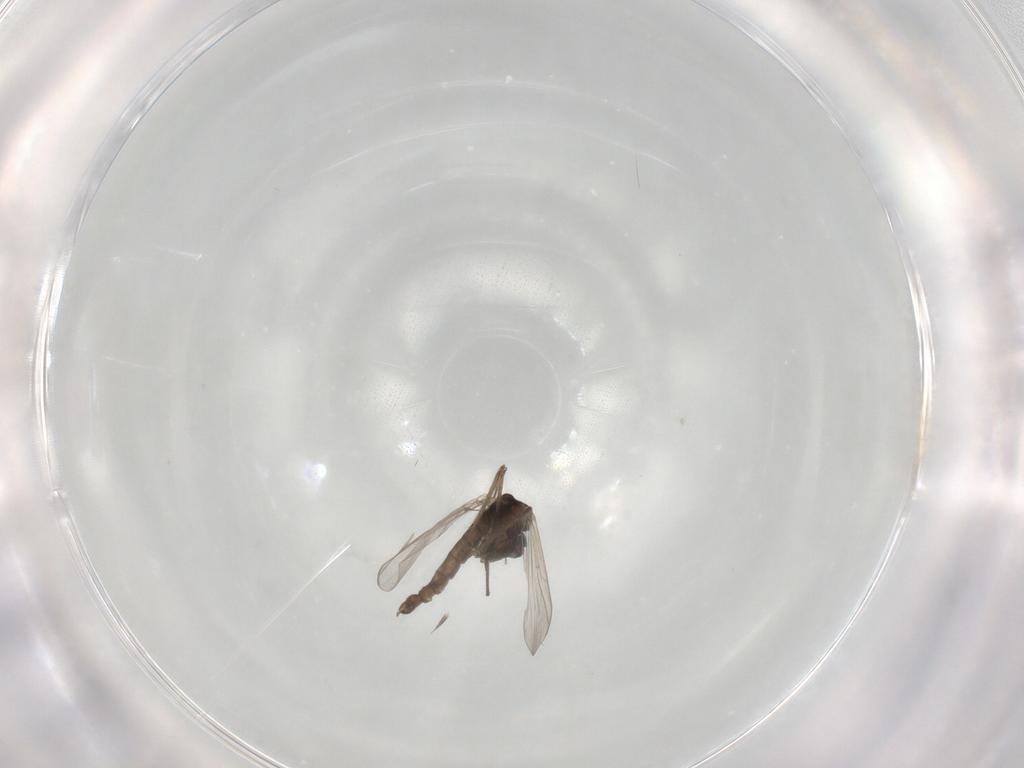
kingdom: Animalia
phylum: Arthropoda
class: Insecta
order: Diptera
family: Chironomidae
